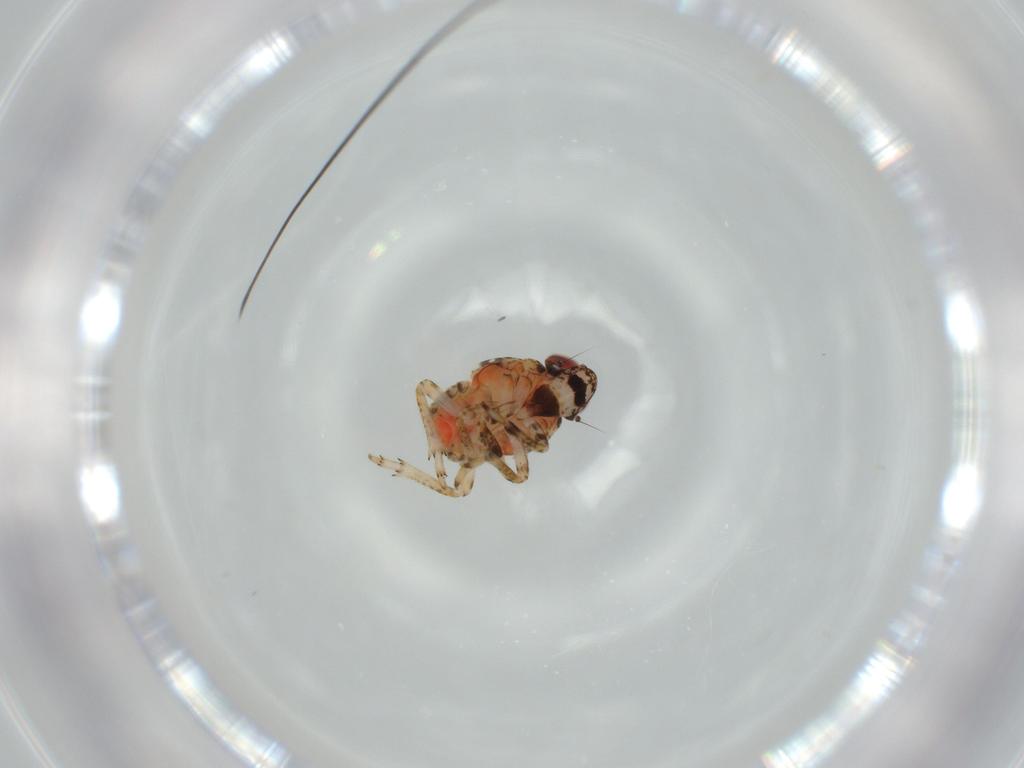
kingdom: Animalia
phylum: Arthropoda
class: Insecta
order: Hemiptera
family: Issidae
